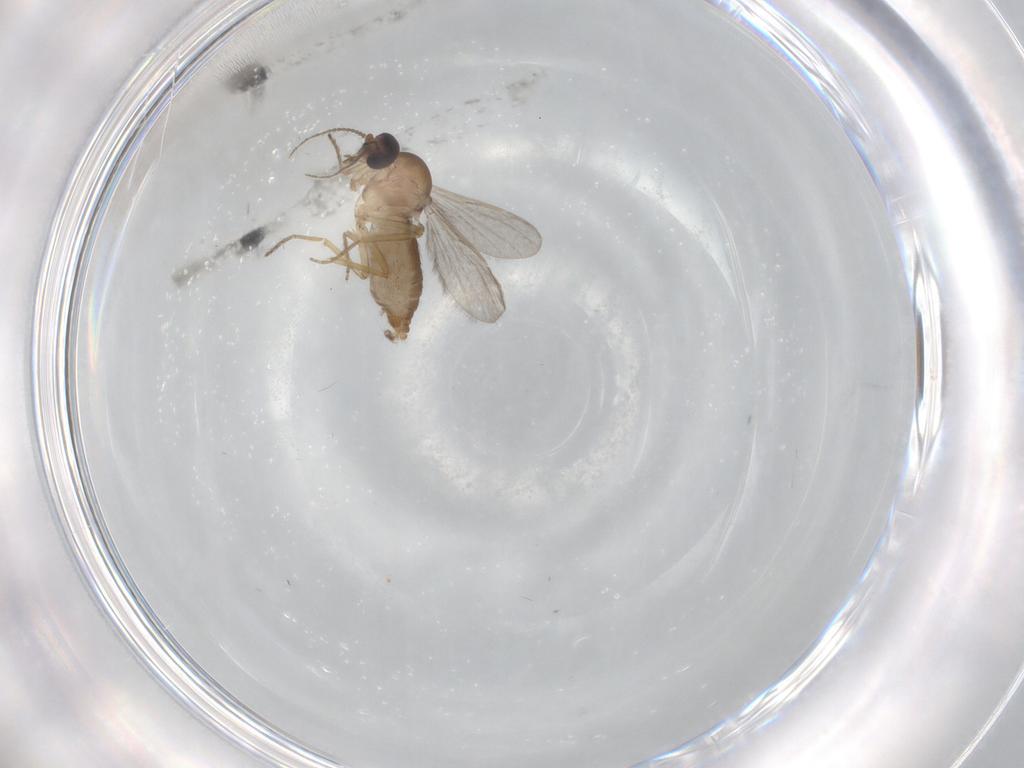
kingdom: Animalia
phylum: Arthropoda
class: Insecta
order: Diptera
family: Ceratopogonidae
